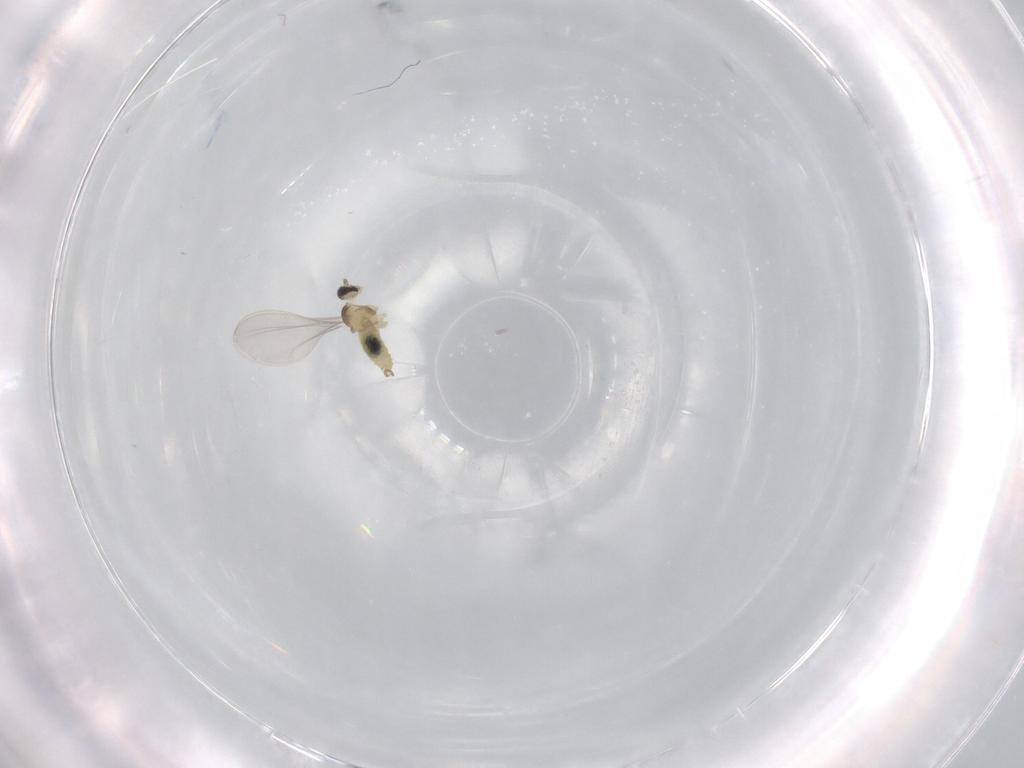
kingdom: Animalia
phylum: Arthropoda
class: Insecta
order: Diptera
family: Cecidomyiidae
